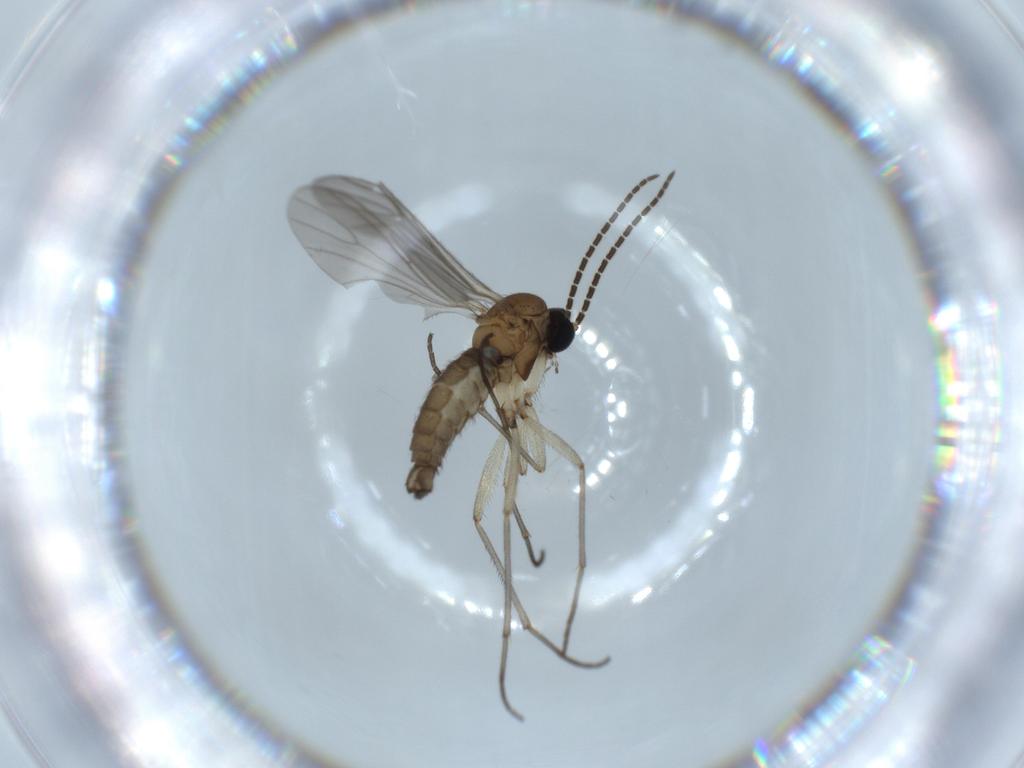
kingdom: Animalia
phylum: Arthropoda
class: Insecta
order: Diptera
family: Sciaridae
